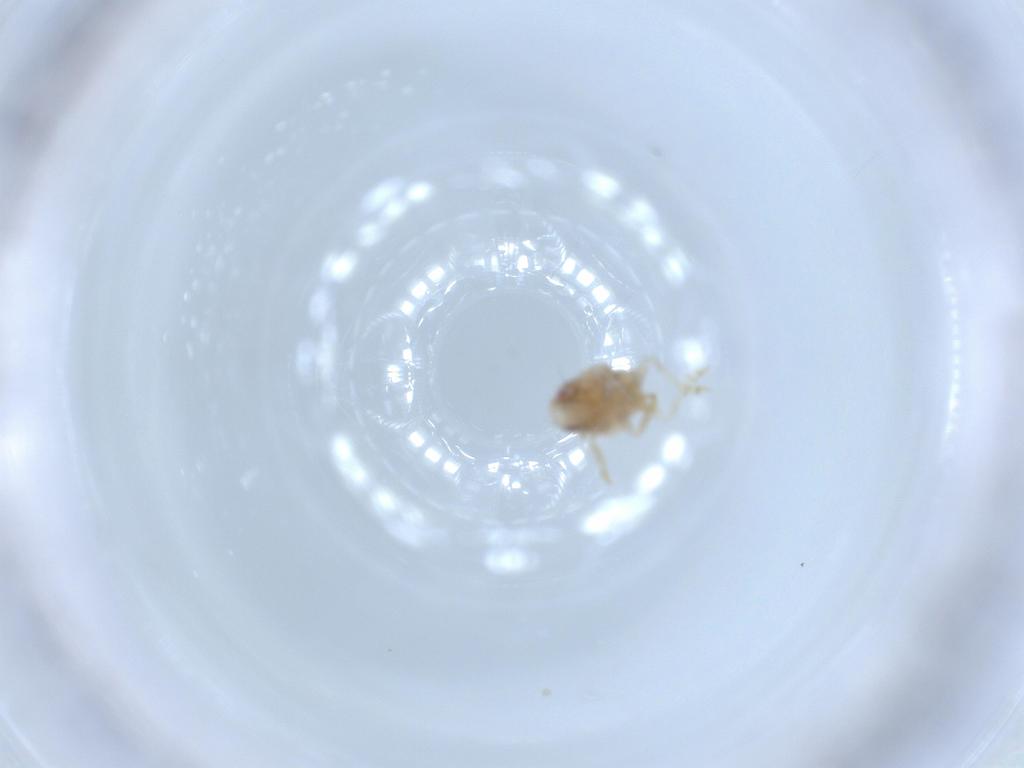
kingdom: Animalia
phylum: Arthropoda
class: Insecta
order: Hemiptera
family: Acanaloniidae
